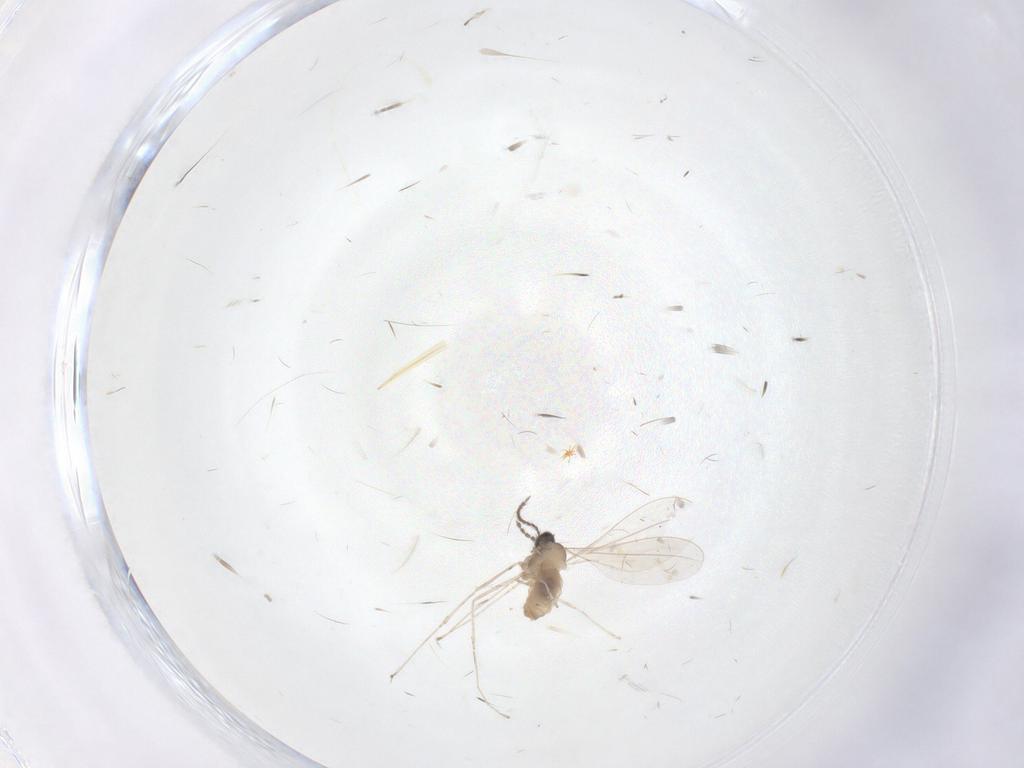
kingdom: Animalia
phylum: Arthropoda
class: Insecta
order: Diptera
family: Cecidomyiidae
